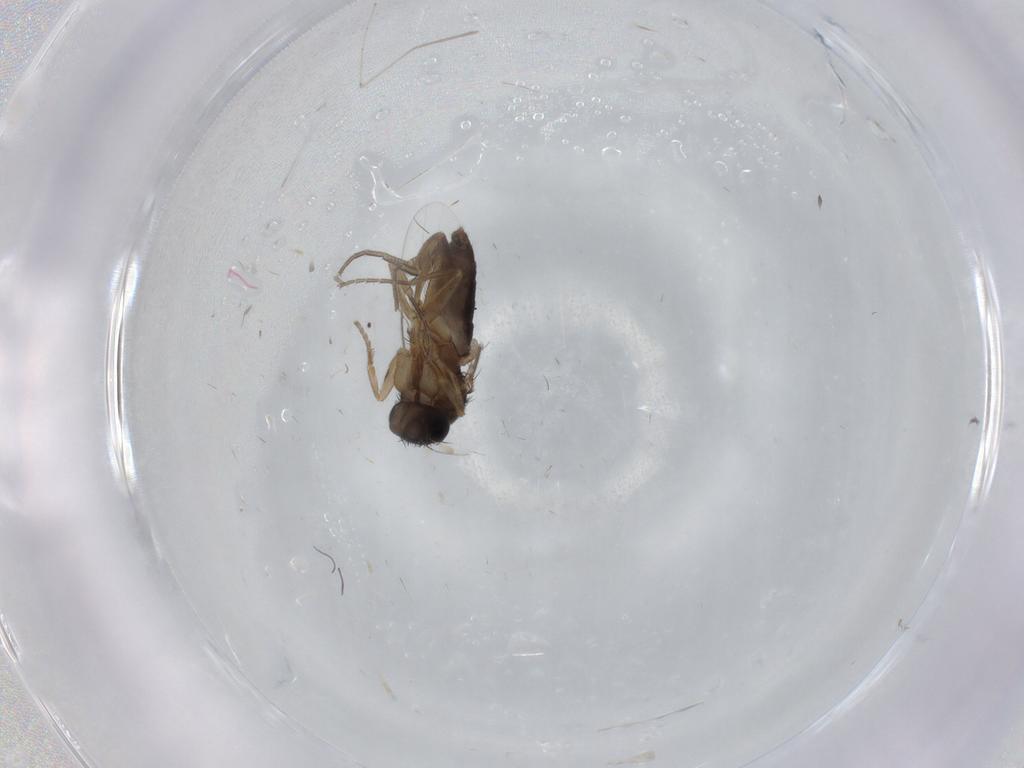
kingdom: Animalia
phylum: Arthropoda
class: Insecta
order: Diptera
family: Phoridae
